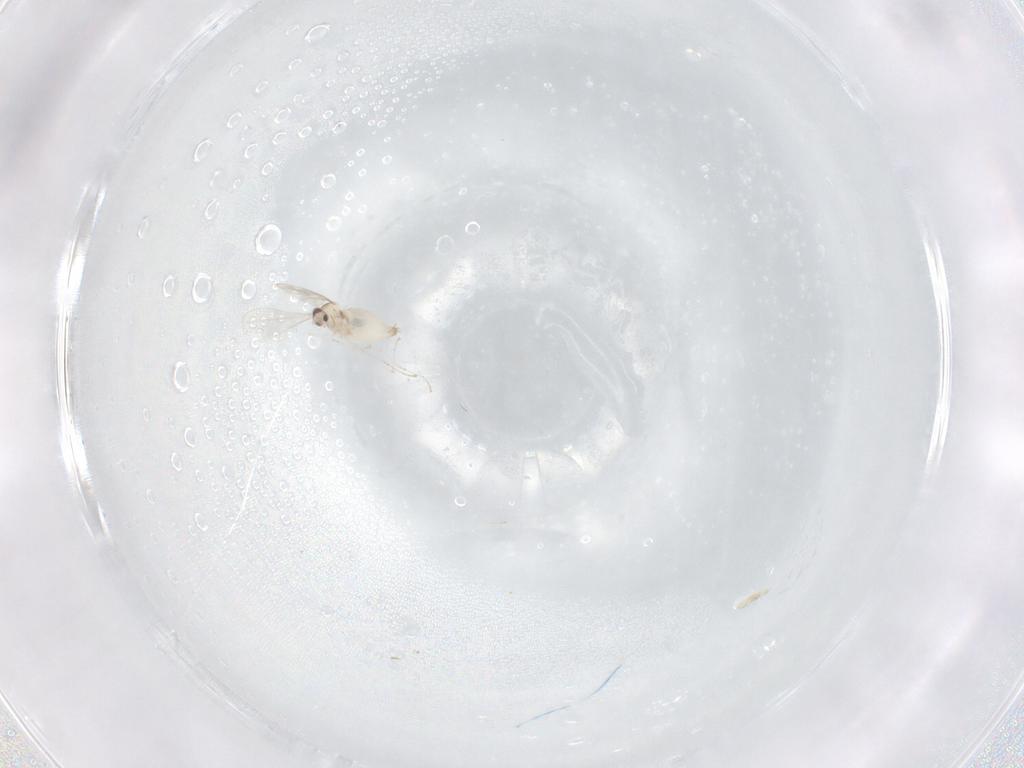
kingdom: Animalia
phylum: Arthropoda
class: Insecta
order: Diptera
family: Cecidomyiidae
